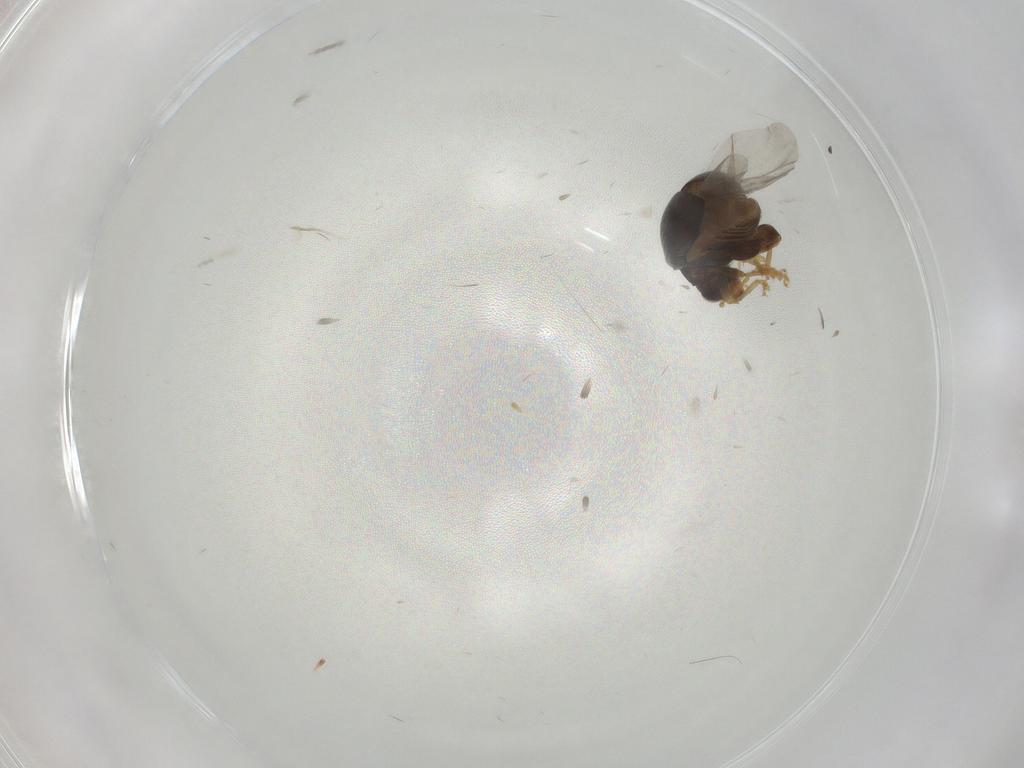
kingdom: Animalia
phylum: Arthropoda
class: Insecta
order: Coleoptera
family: Chrysomelidae
